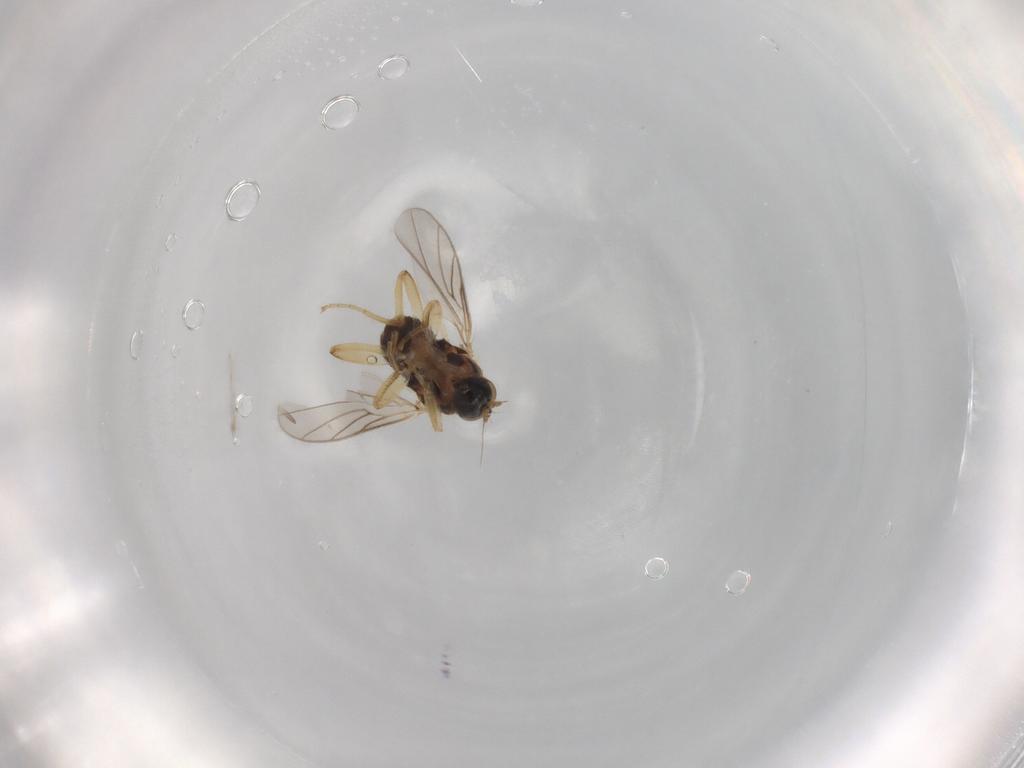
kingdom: Animalia
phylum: Arthropoda
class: Insecta
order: Diptera
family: Hybotidae
